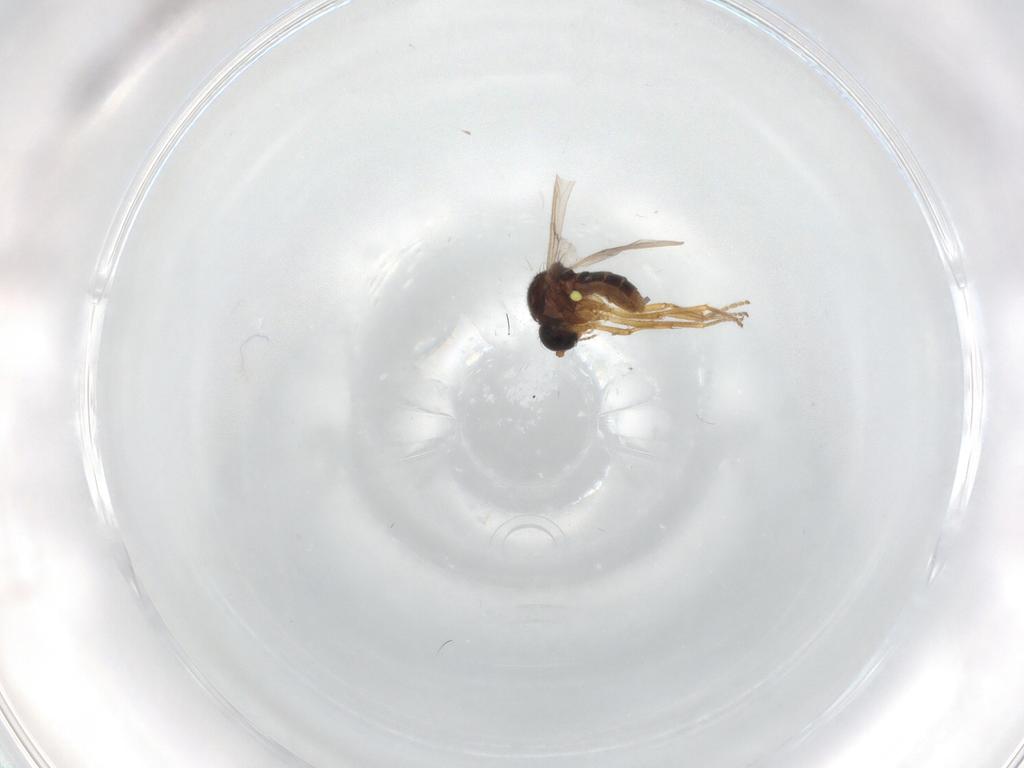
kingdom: Animalia
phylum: Arthropoda
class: Insecta
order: Diptera
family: Ceratopogonidae
